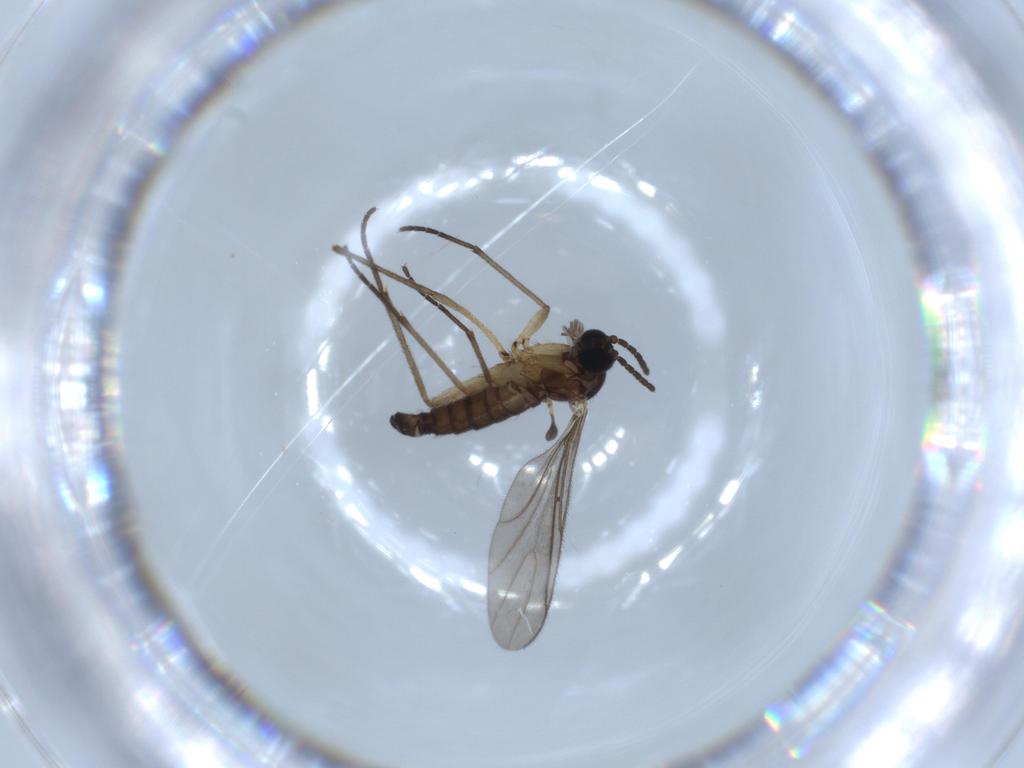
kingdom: Animalia
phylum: Arthropoda
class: Insecta
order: Diptera
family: Sciaridae
